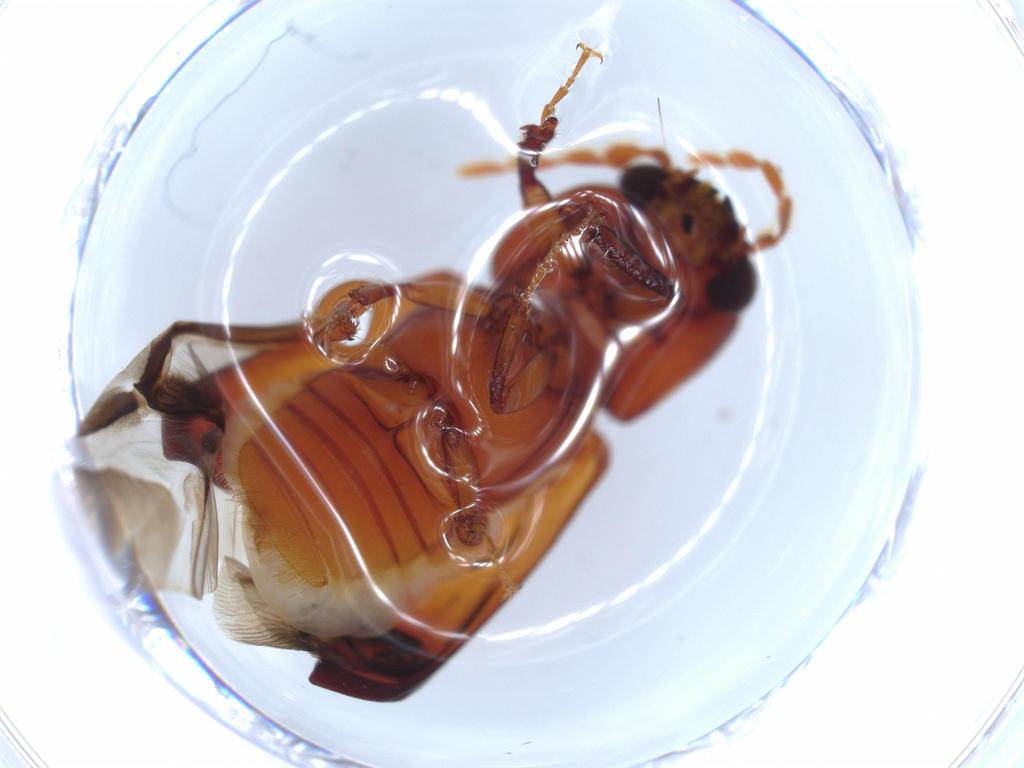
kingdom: Animalia
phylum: Arthropoda
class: Insecta
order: Coleoptera
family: Bostrichidae
